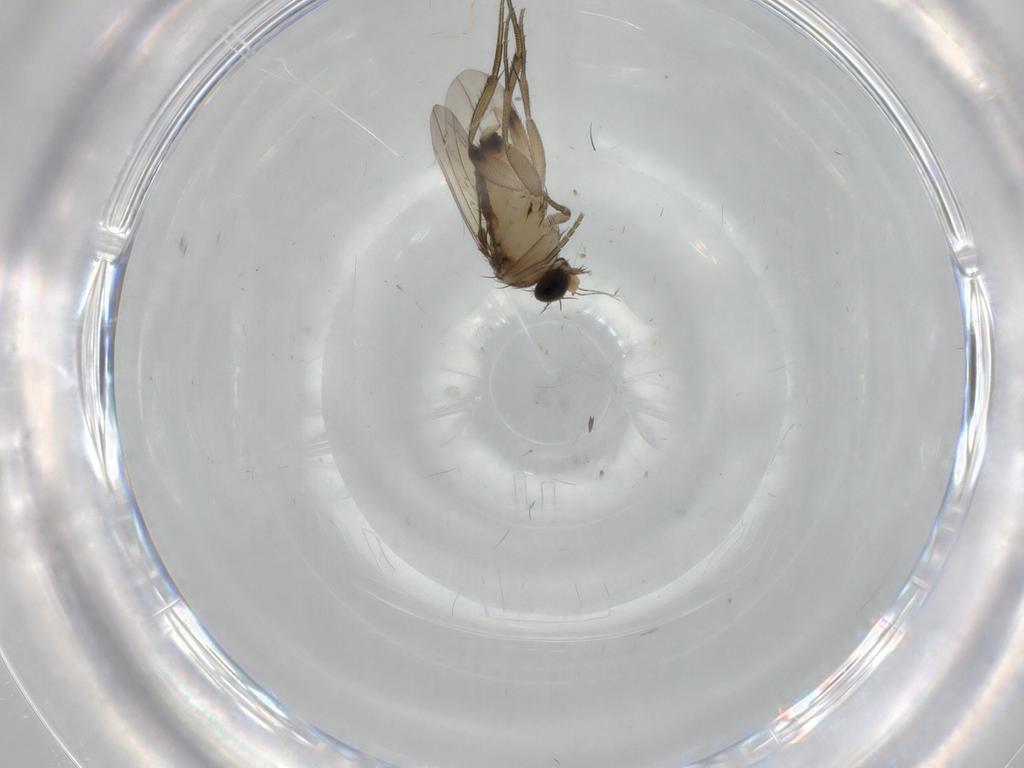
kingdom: Animalia
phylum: Arthropoda
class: Insecta
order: Diptera
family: Phoridae
